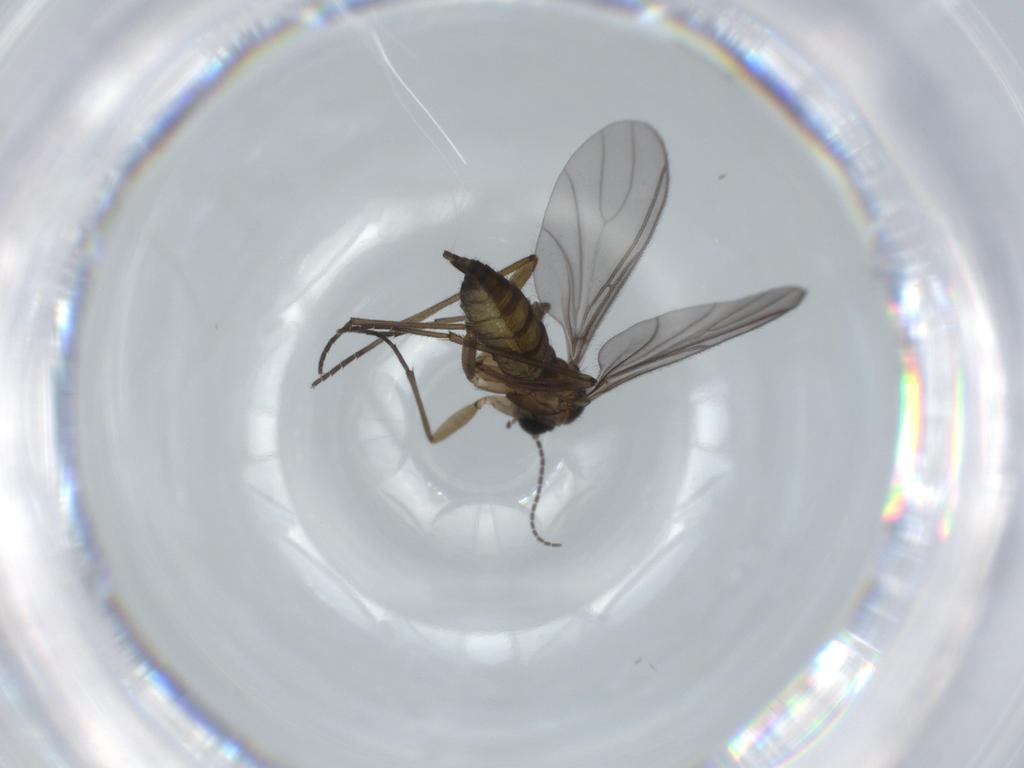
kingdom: Animalia
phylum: Arthropoda
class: Insecta
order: Diptera
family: Sciaridae
